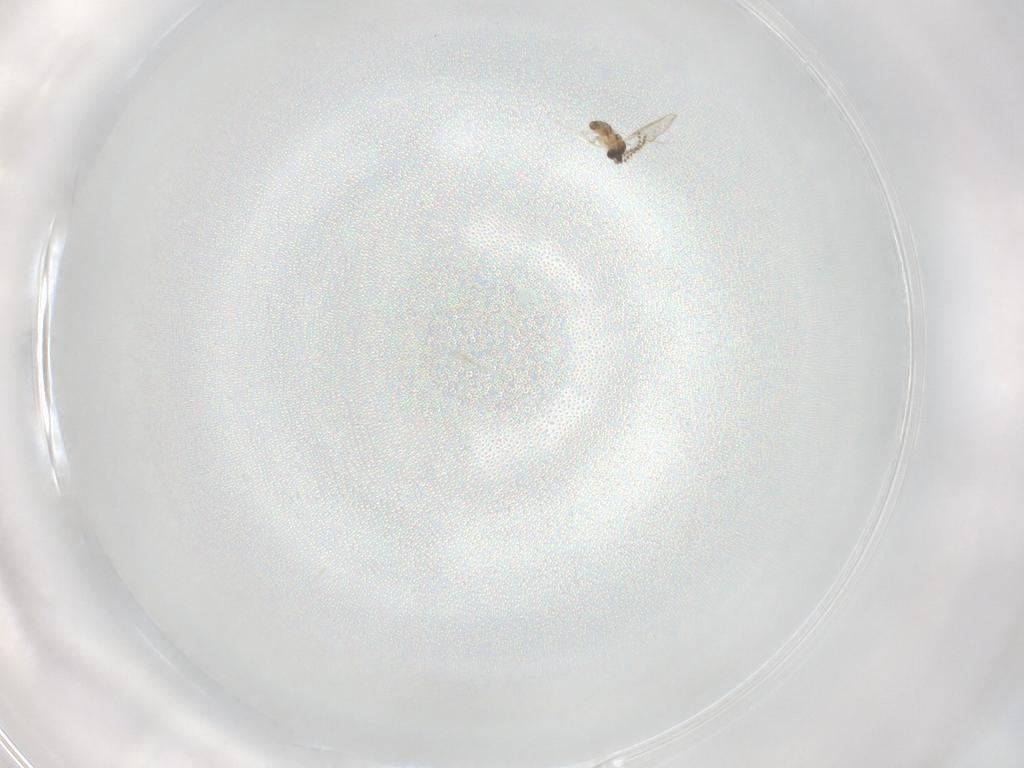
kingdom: Animalia
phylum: Arthropoda
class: Insecta
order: Diptera
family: Cecidomyiidae
